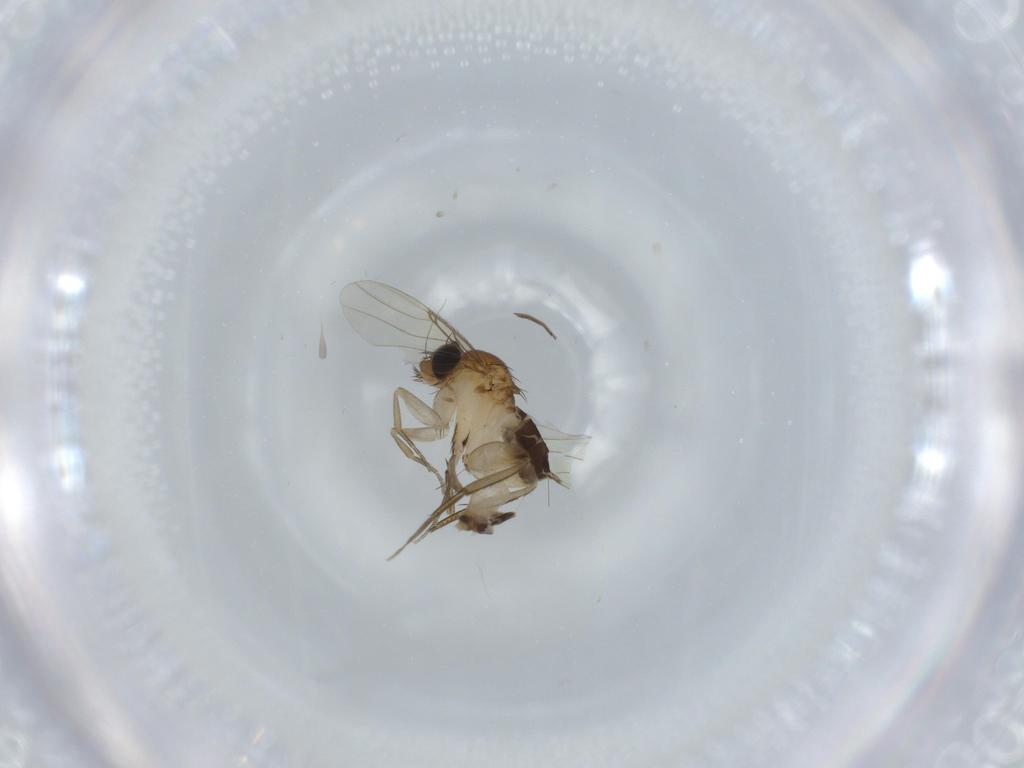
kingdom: Animalia
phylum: Arthropoda
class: Insecta
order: Diptera
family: Phoridae
